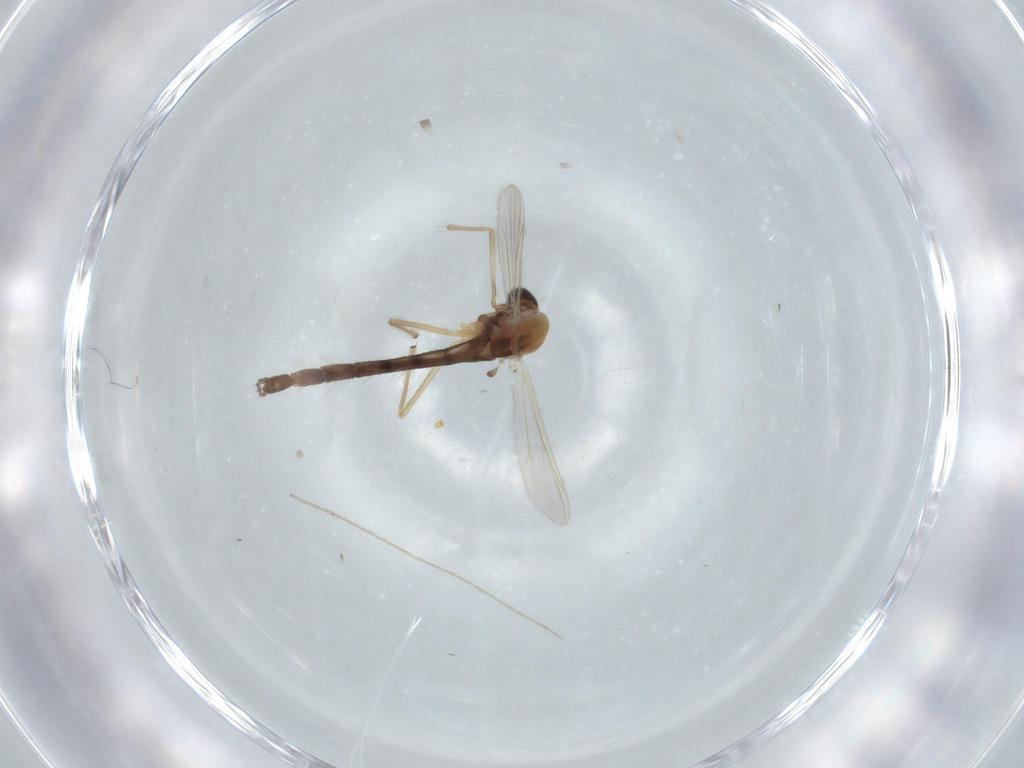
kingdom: Animalia
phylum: Arthropoda
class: Insecta
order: Diptera
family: Chironomidae
